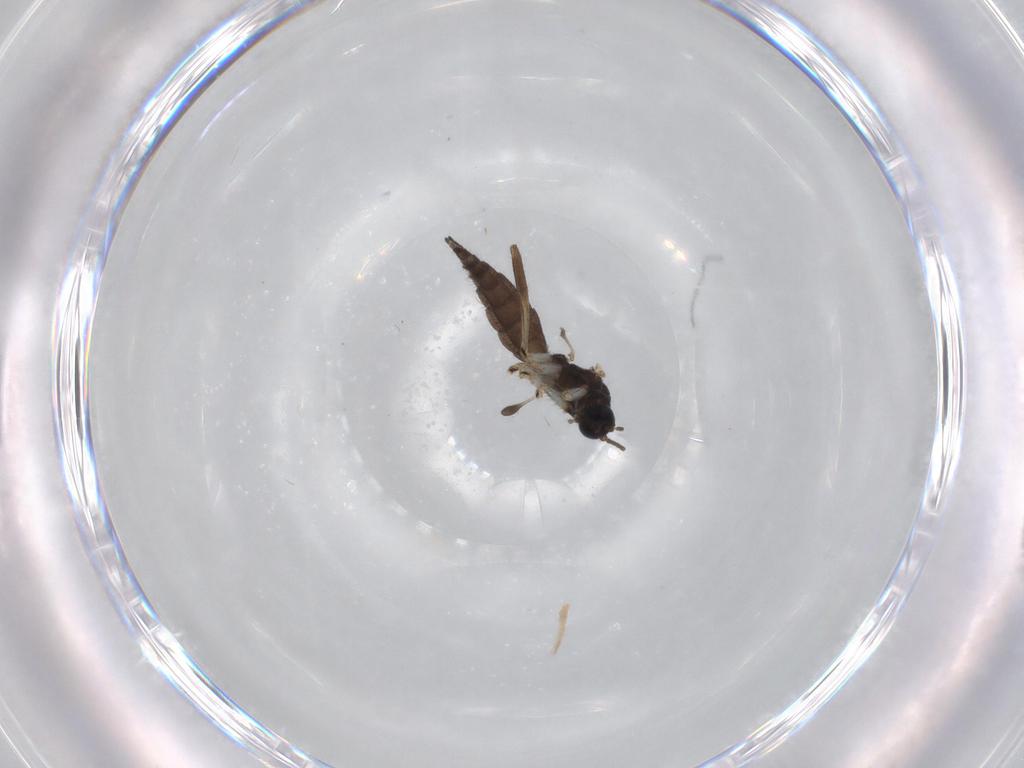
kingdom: Animalia
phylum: Arthropoda
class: Insecta
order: Diptera
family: Sciaridae
